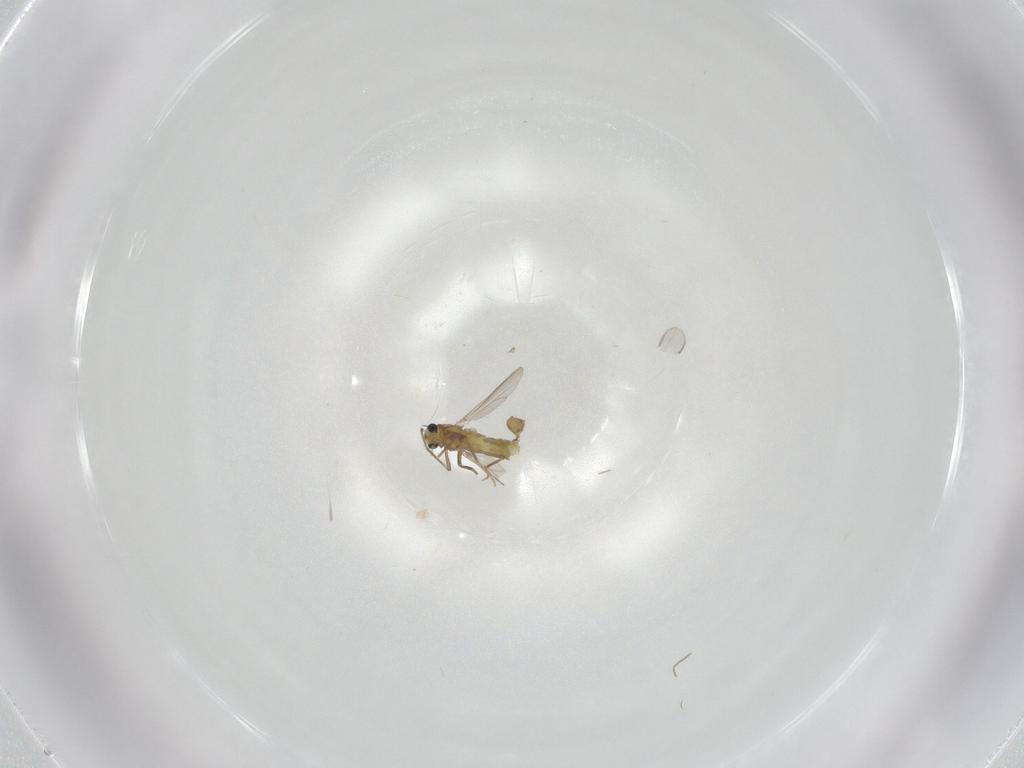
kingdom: Animalia
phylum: Arthropoda
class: Insecta
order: Diptera
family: Chironomidae
